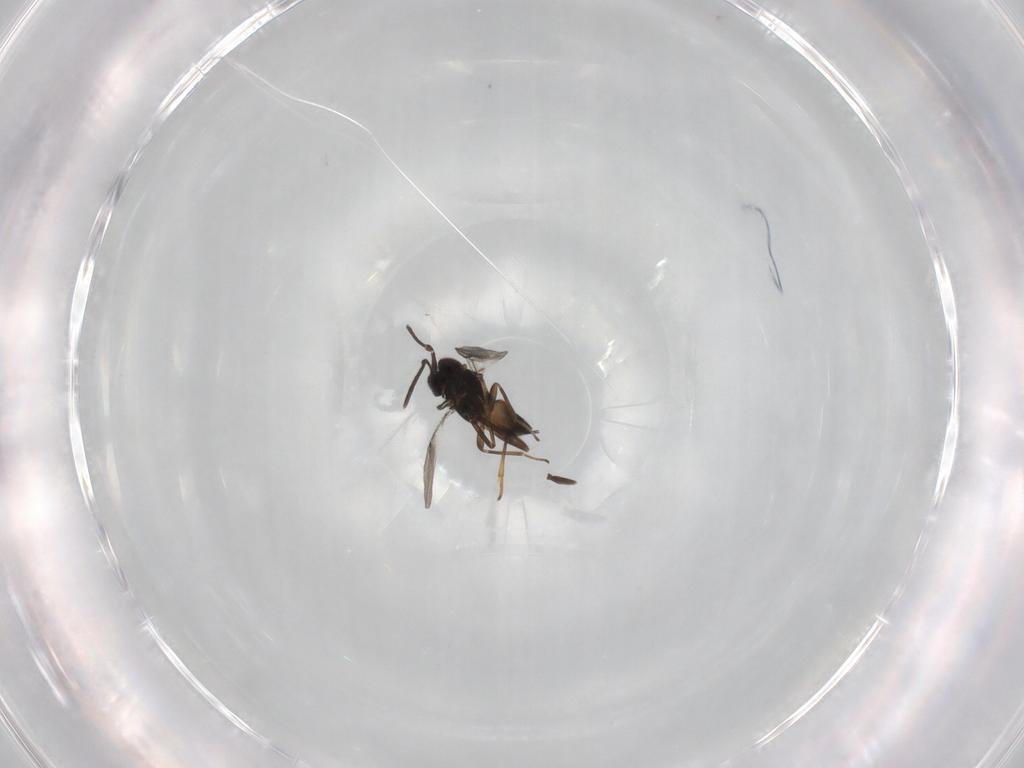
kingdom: Animalia
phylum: Arthropoda
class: Insecta
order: Hymenoptera
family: Encyrtidae
